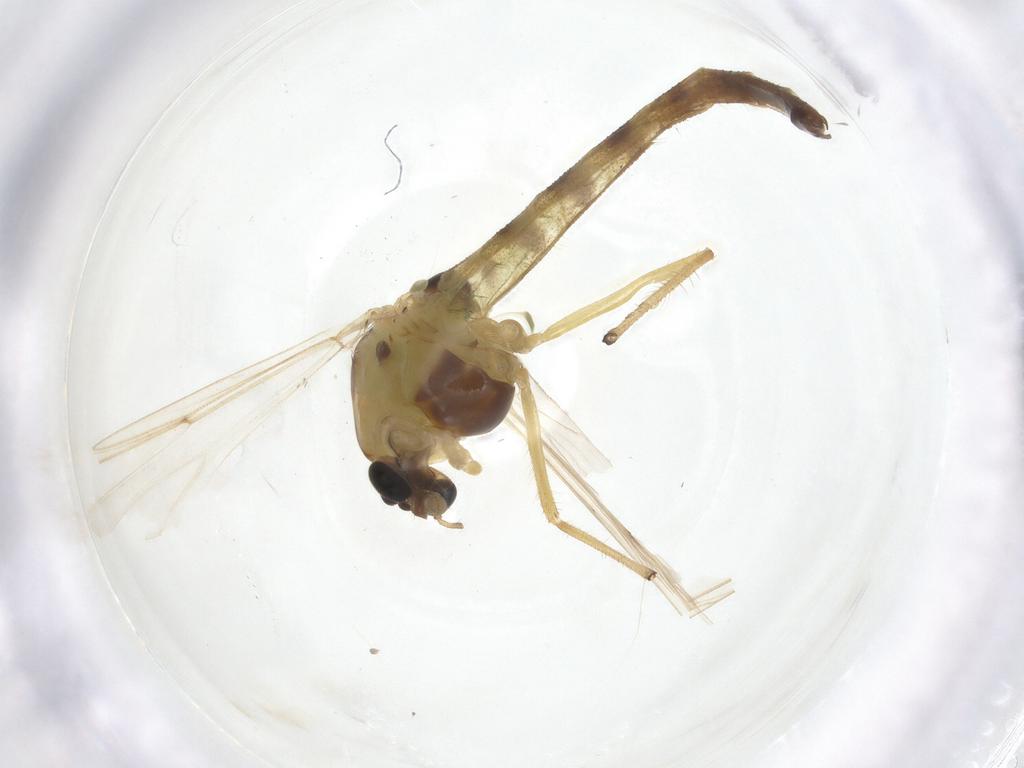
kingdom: Animalia
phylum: Arthropoda
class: Insecta
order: Diptera
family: Chironomidae
